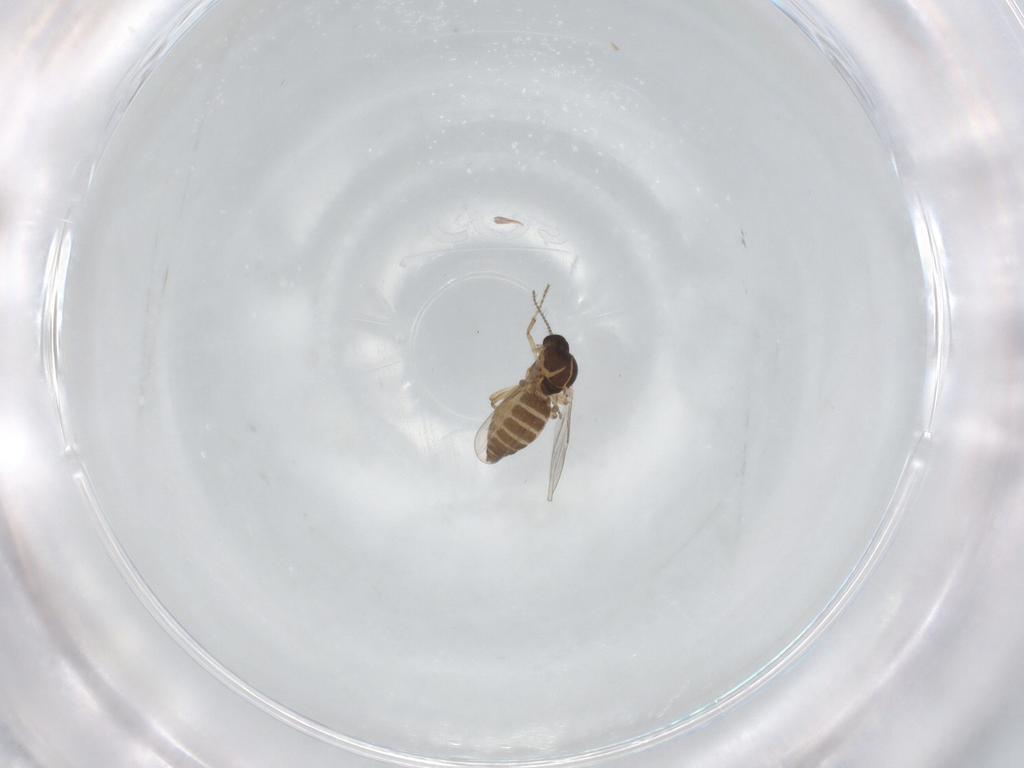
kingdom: Animalia
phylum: Arthropoda
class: Insecta
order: Diptera
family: Ceratopogonidae
